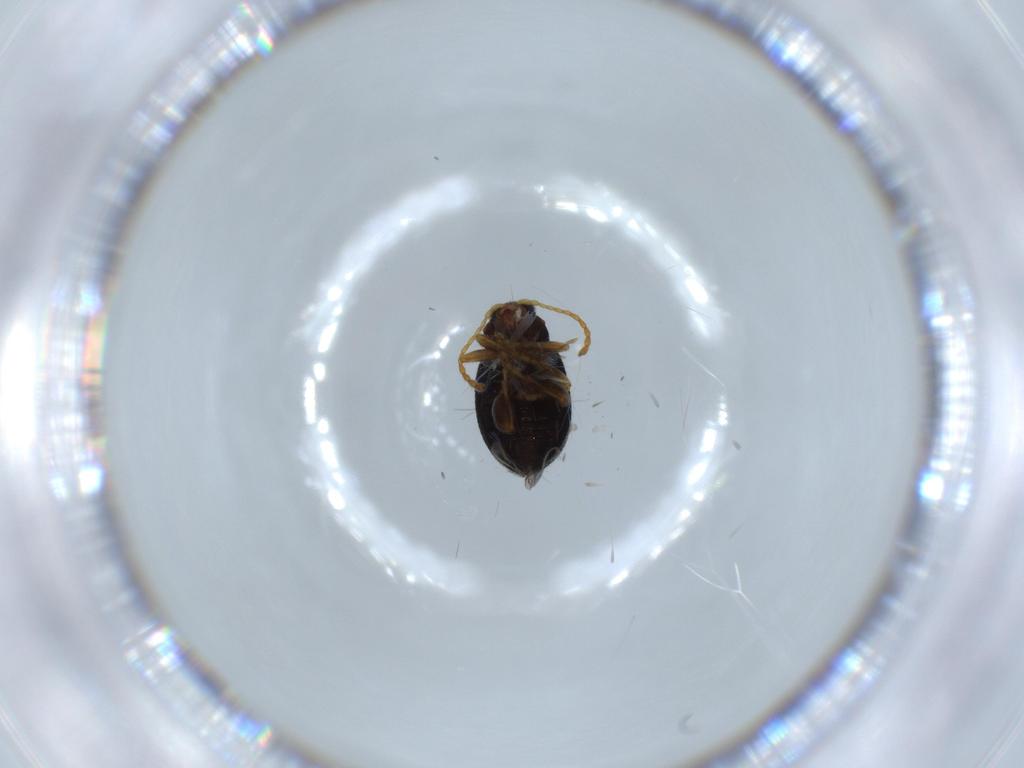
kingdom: Animalia
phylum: Arthropoda
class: Insecta
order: Coleoptera
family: Chrysomelidae
